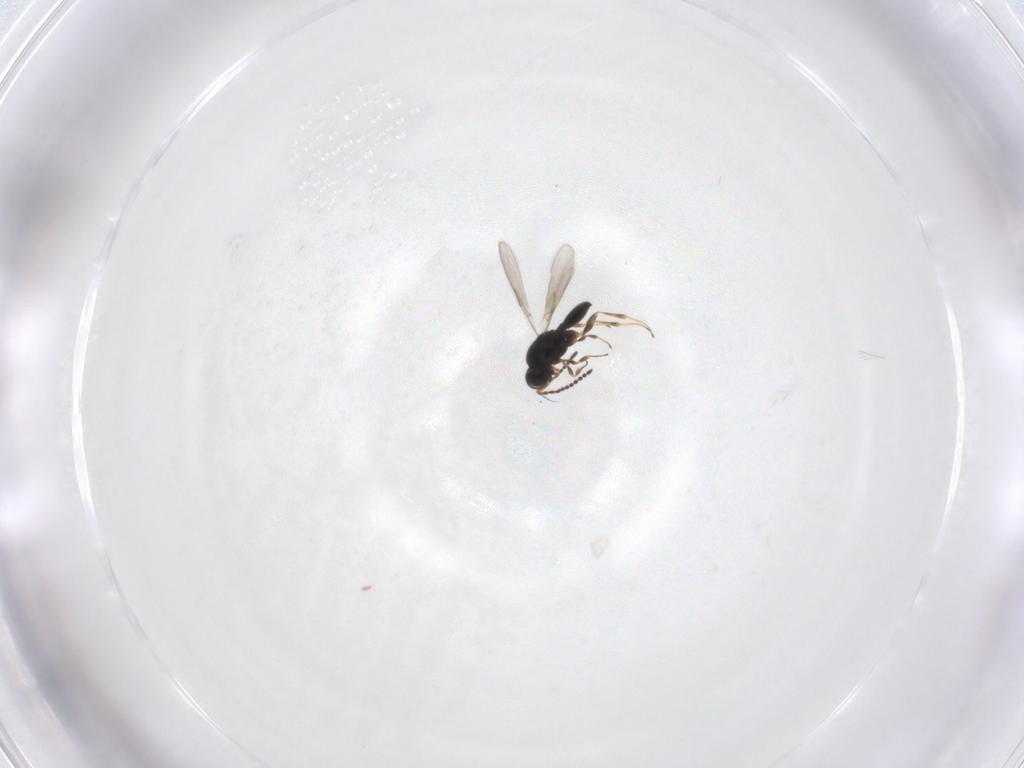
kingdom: Animalia
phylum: Arthropoda
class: Insecta
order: Hymenoptera
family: Scelionidae
